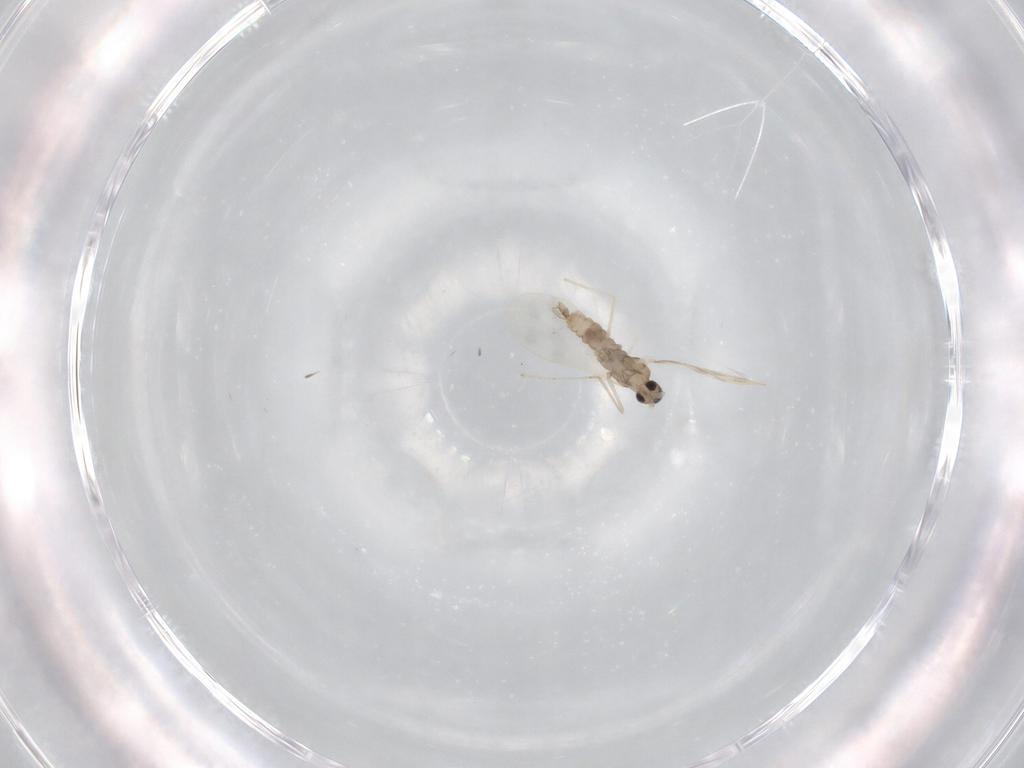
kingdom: Animalia
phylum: Arthropoda
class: Insecta
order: Diptera
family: Cecidomyiidae
